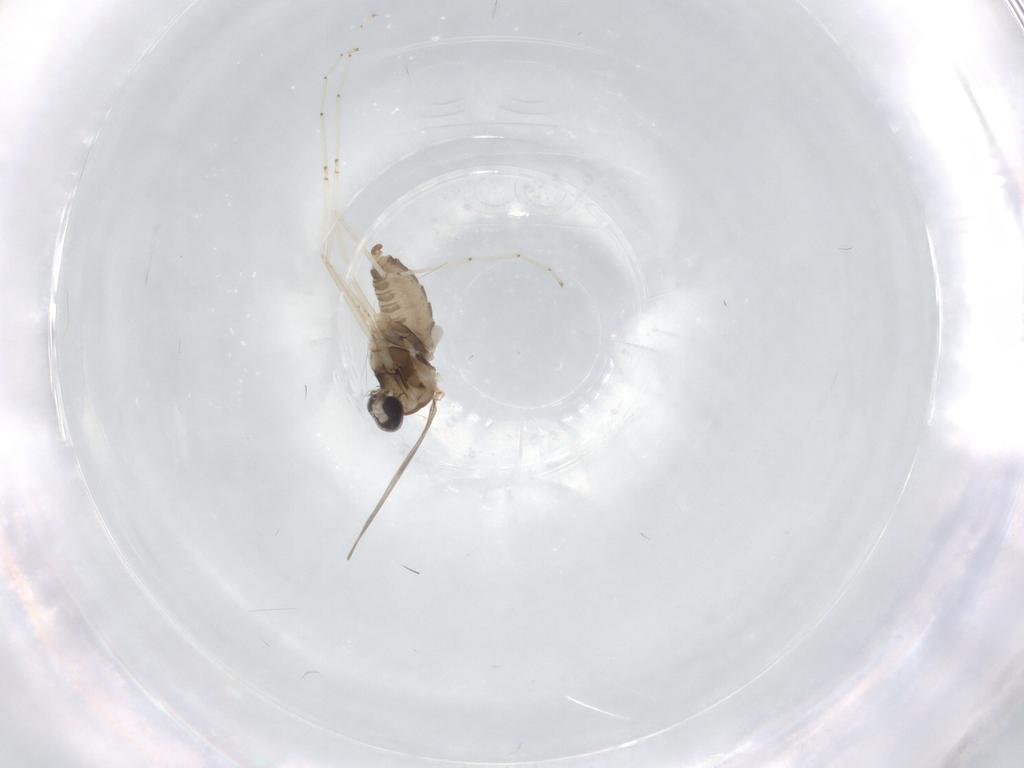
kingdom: Animalia
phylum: Arthropoda
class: Insecta
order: Diptera
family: Cecidomyiidae
